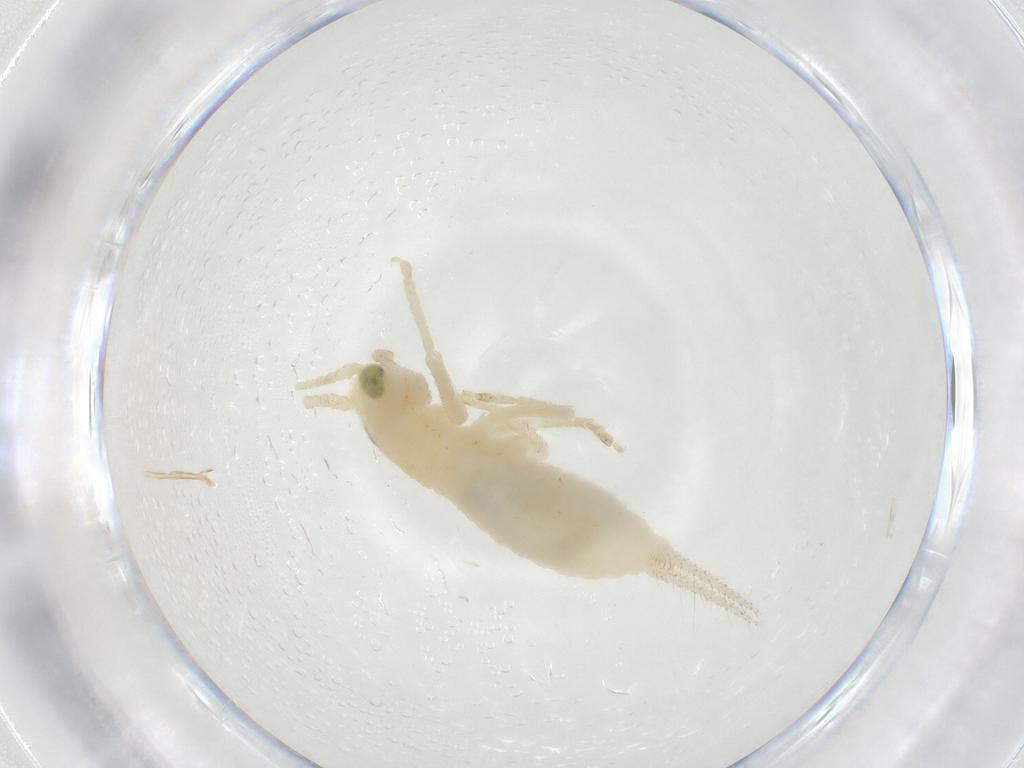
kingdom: Animalia
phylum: Arthropoda
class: Insecta
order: Orthoptera
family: Trigonidiidae
